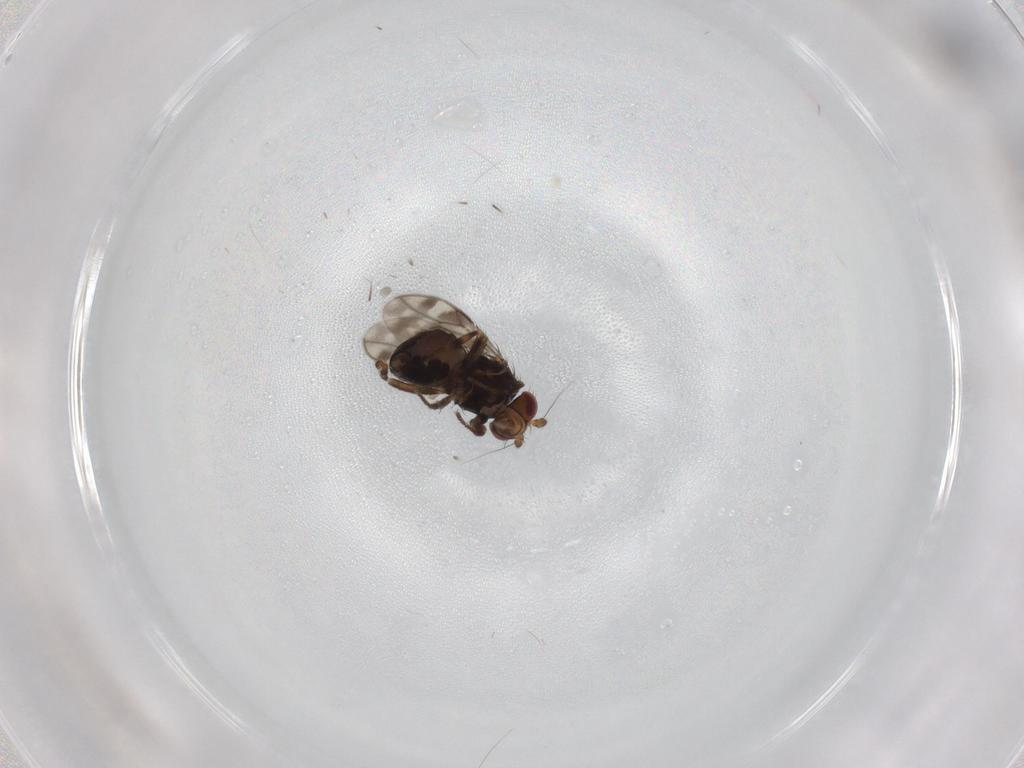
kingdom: Animalia
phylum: Arthropoda
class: Insecta
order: Diptera
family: Sphaeroceridae
